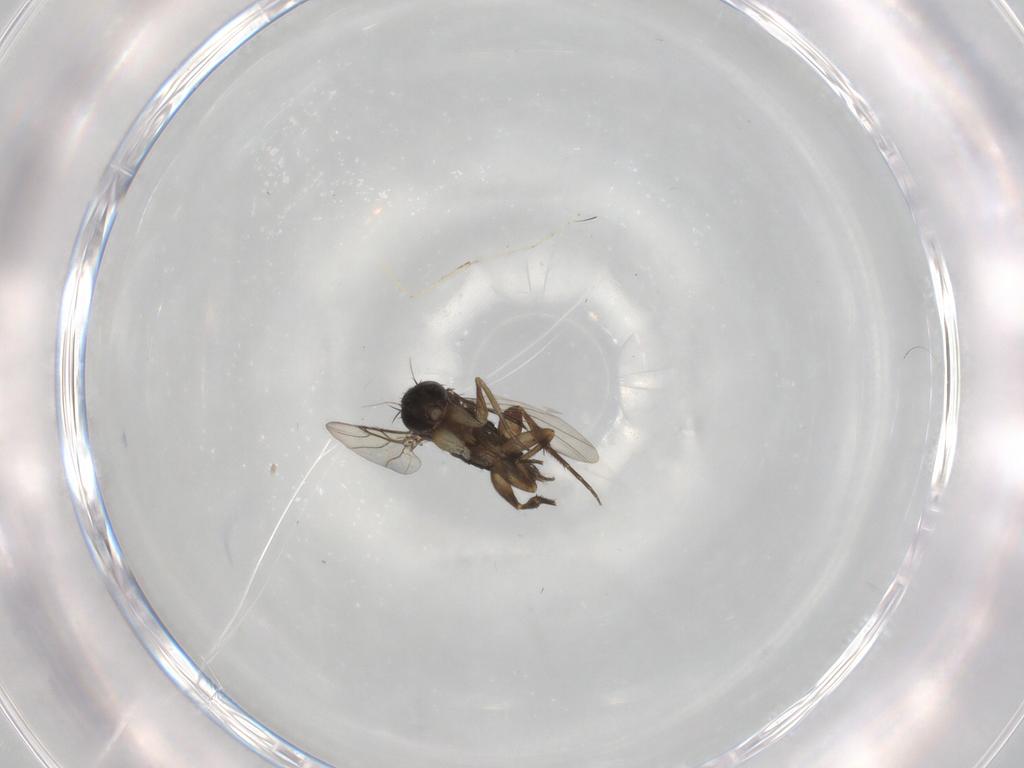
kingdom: Animalia
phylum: Arthropoda
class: Insecta
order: Diptera
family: Cecidomyiidae
